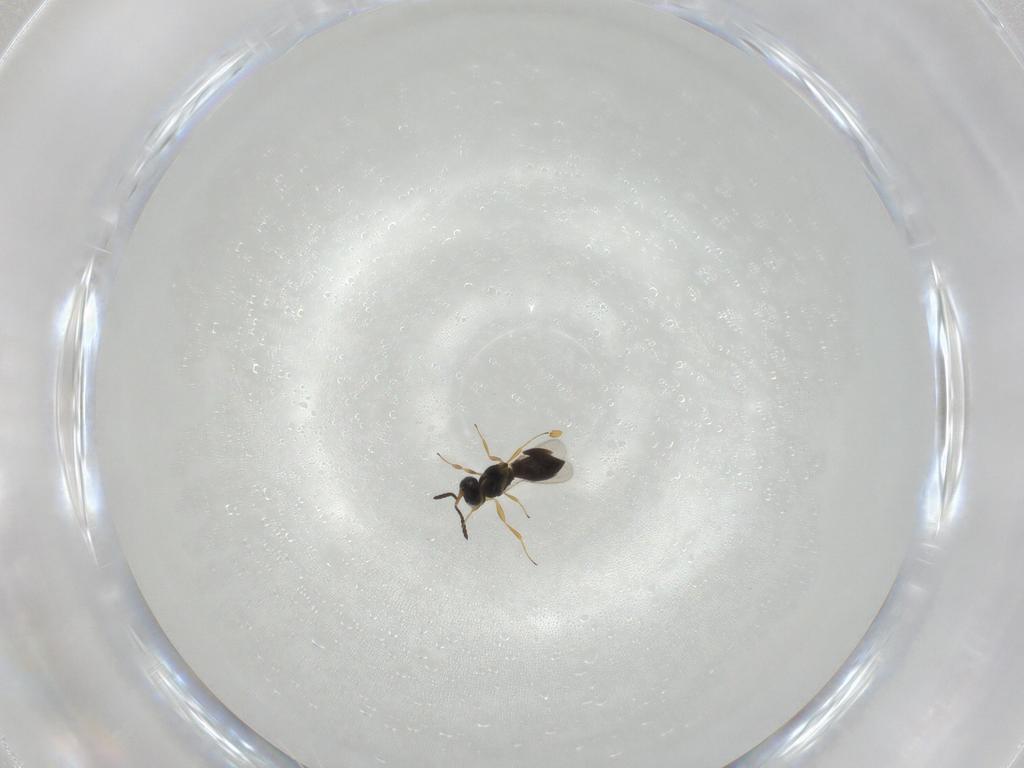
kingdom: Animalia
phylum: Arthropoda
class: Insecta
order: Hymenoptera
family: Scelionidae
